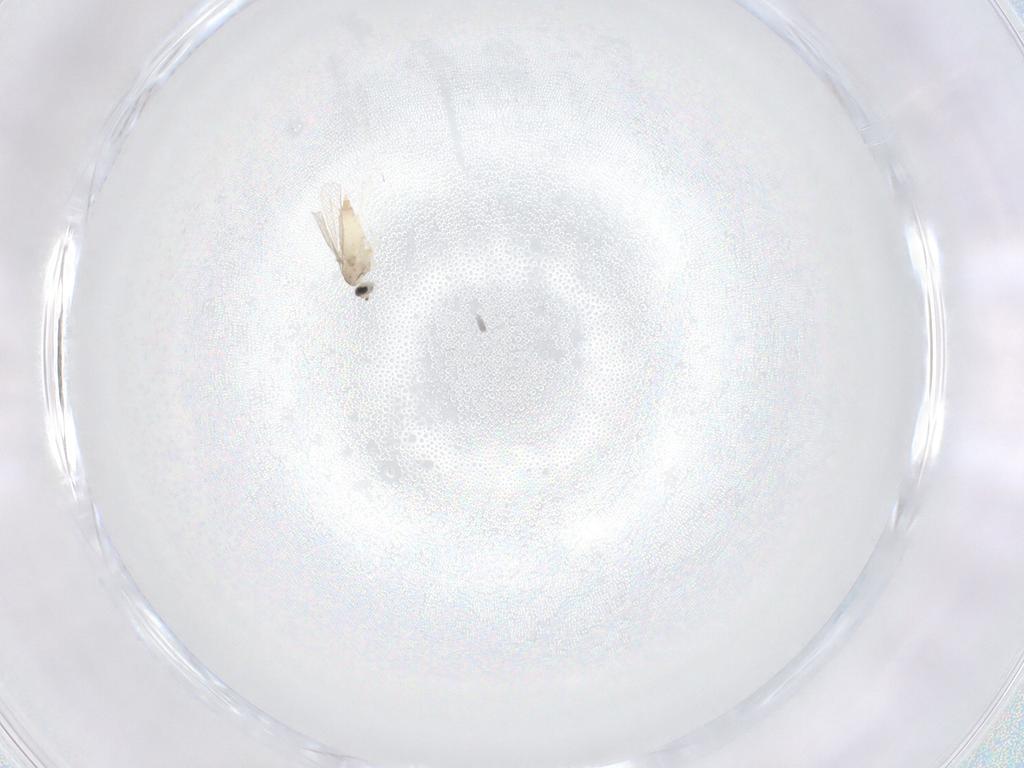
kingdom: Animalia
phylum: Arthropoda
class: Insecta
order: Diptera
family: Cecidomyiidae
